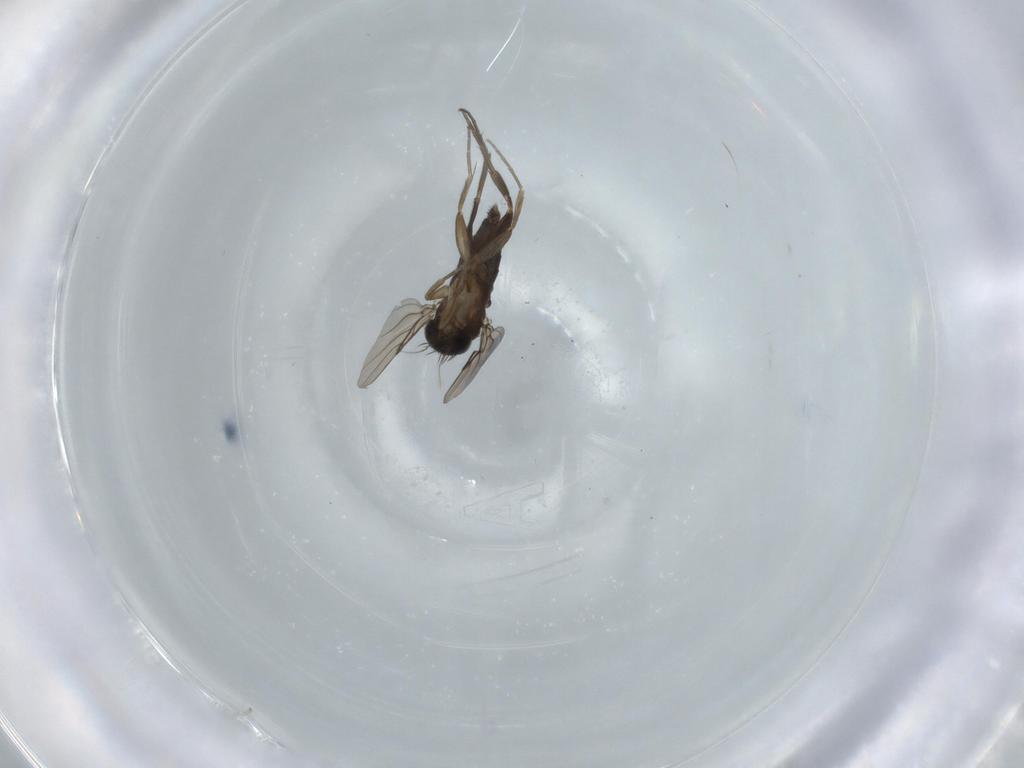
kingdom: Animalia
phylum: Arthropoda
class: Insecta
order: Diptera
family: Phoridae
